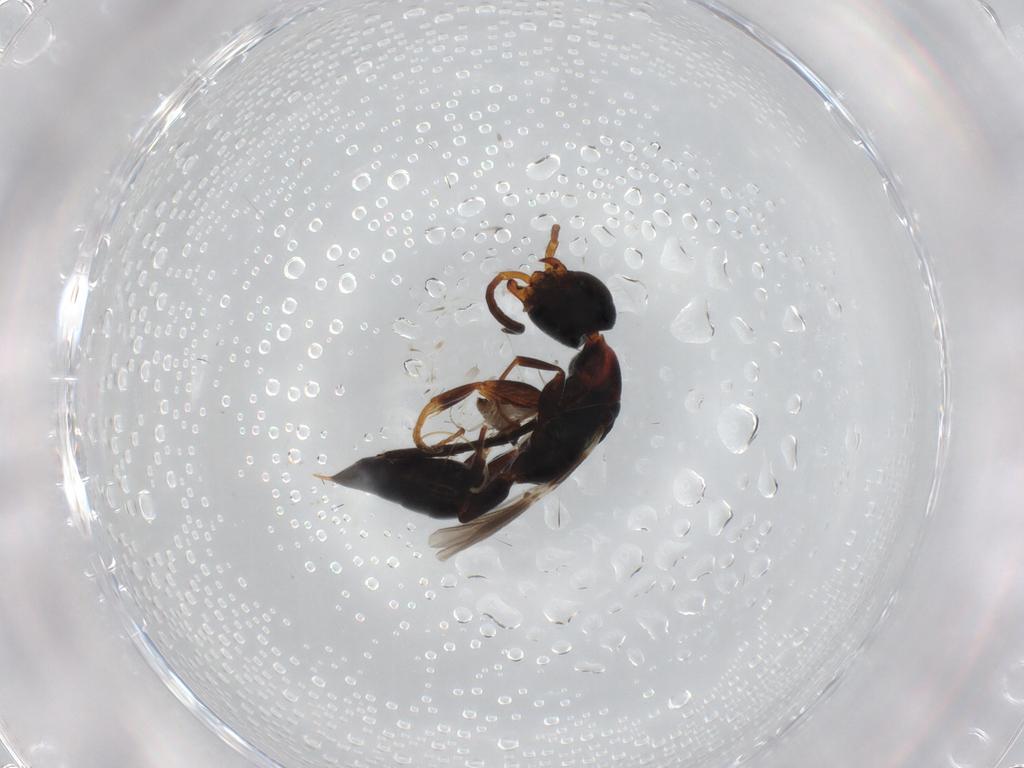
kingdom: Animalia
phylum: Arthropoda
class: Insecta
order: Hymenoptera
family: Bethylidae
